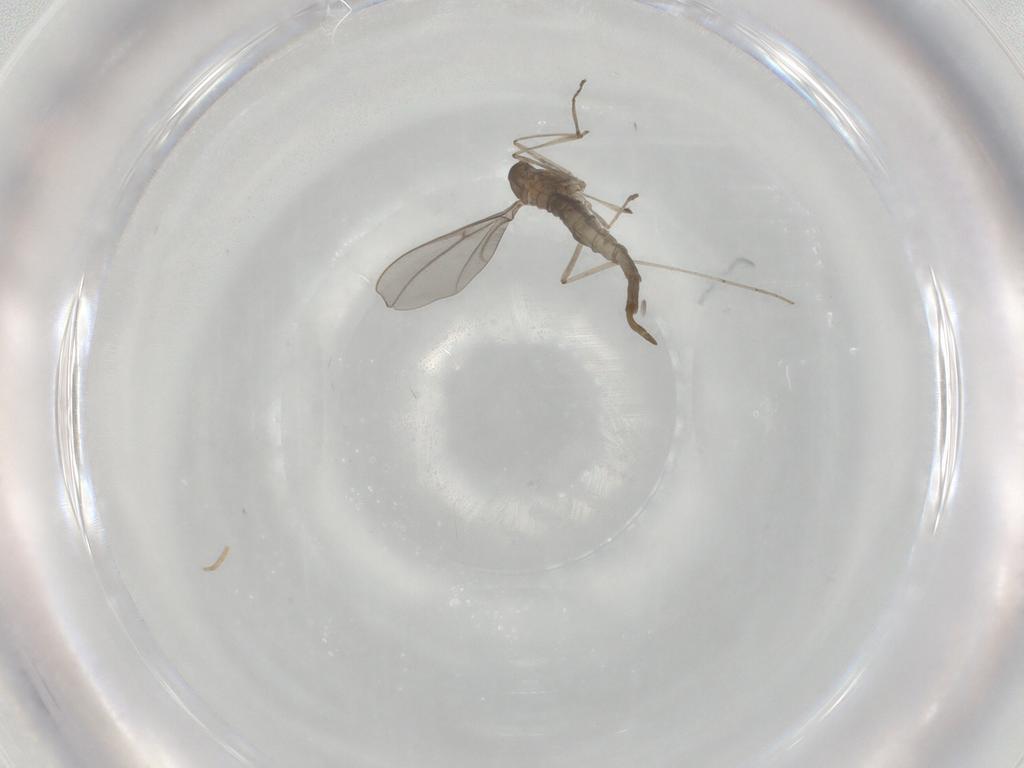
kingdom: Animalia
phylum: Arthropoda
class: Insecta
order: Diptera
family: Cecidomyiidae
